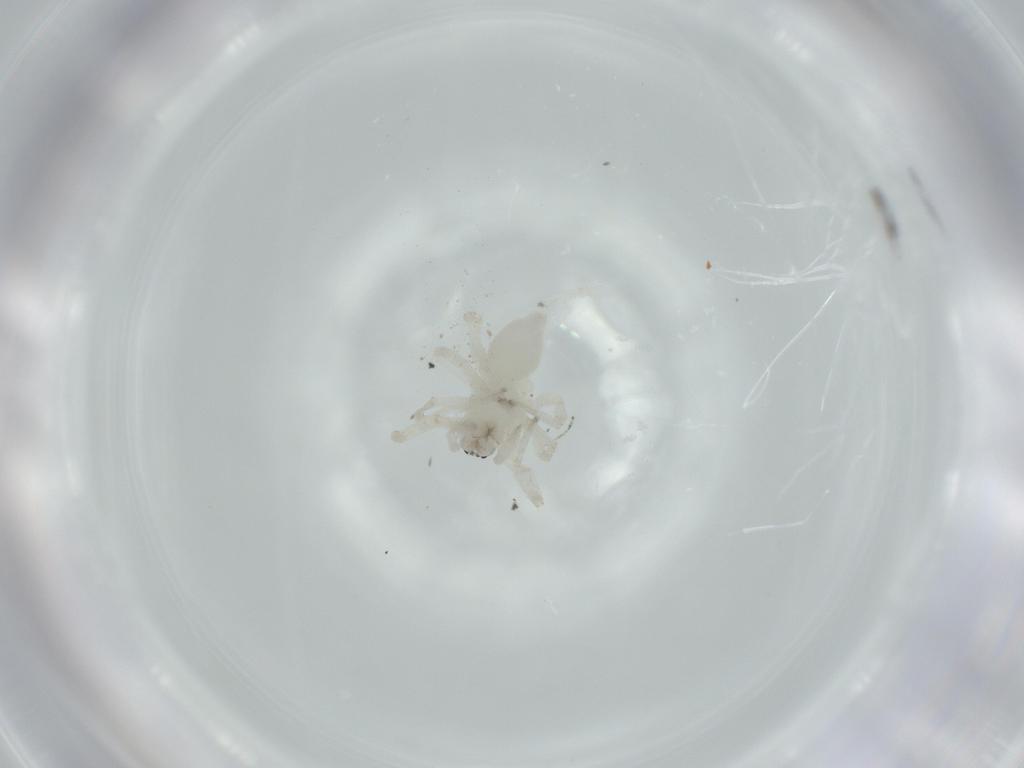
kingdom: Animalia
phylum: Arthropoda
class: Arachnida
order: Araneae
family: Anyphaenidae
